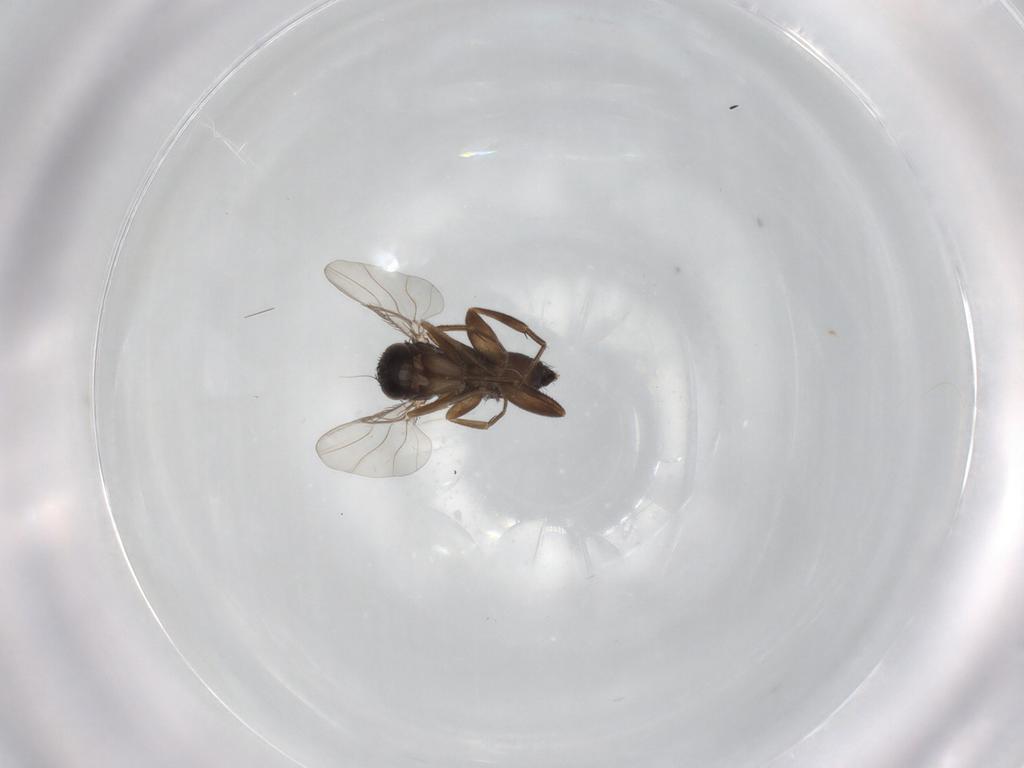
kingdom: Animalia
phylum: Arthropoda
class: Insecta
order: Diptera
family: Phoridae
